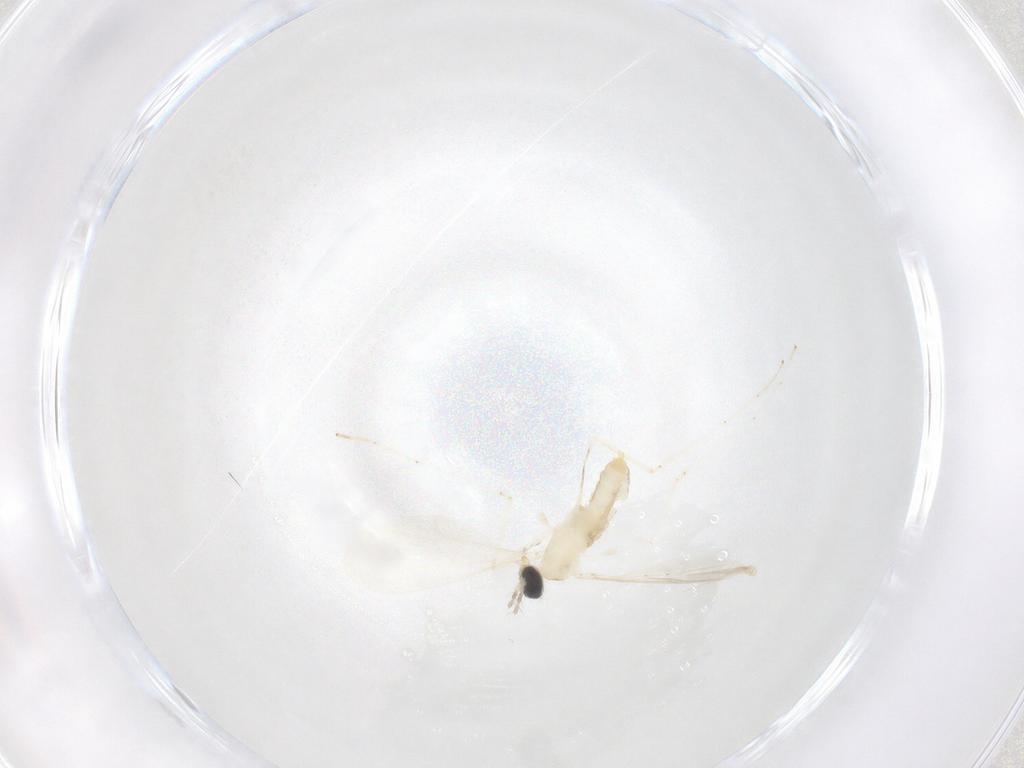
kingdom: Animalia
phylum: Arthropoda
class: Insecta
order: Diptera
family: Cecidomyiidae
